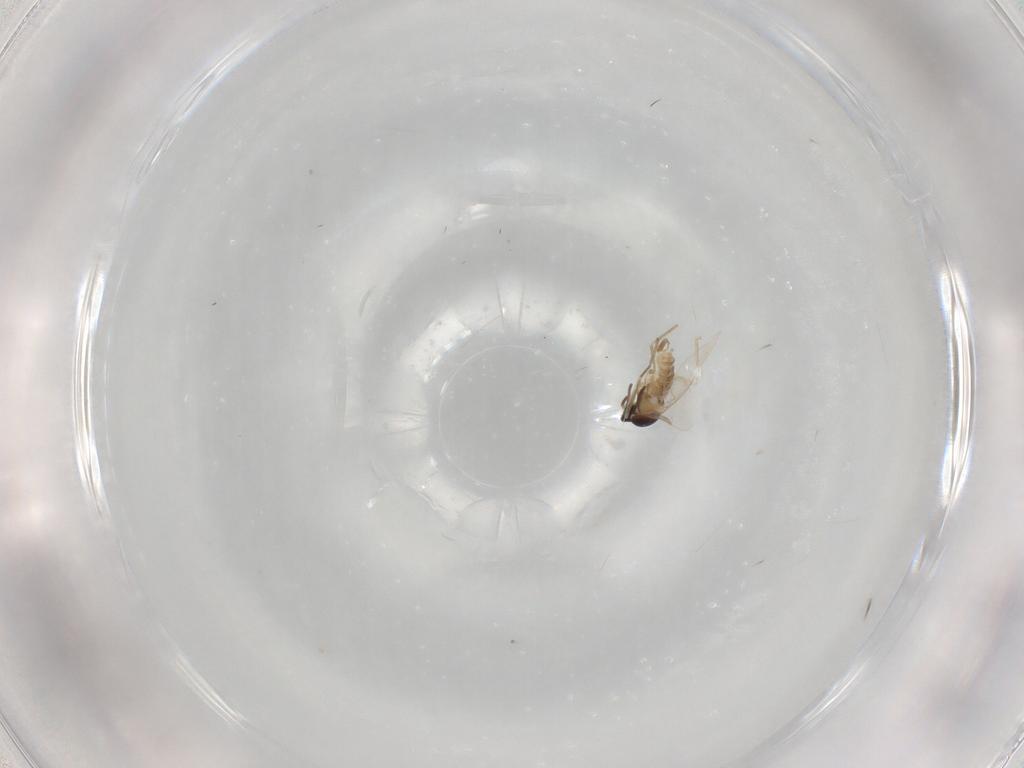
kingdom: Animalia
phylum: Arthropoda
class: Insecta
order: Diptera
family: Cecidomyiidae
